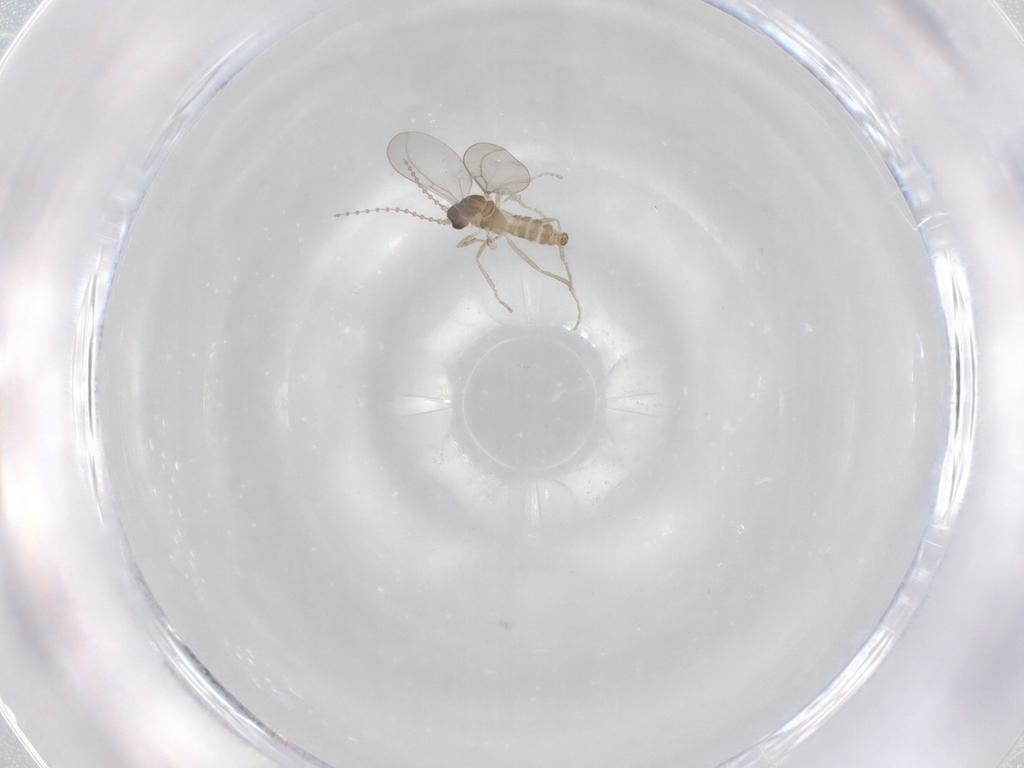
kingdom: Animalia
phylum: Arthropoda
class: Insecta
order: Diptera
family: Cecidomyiidae
